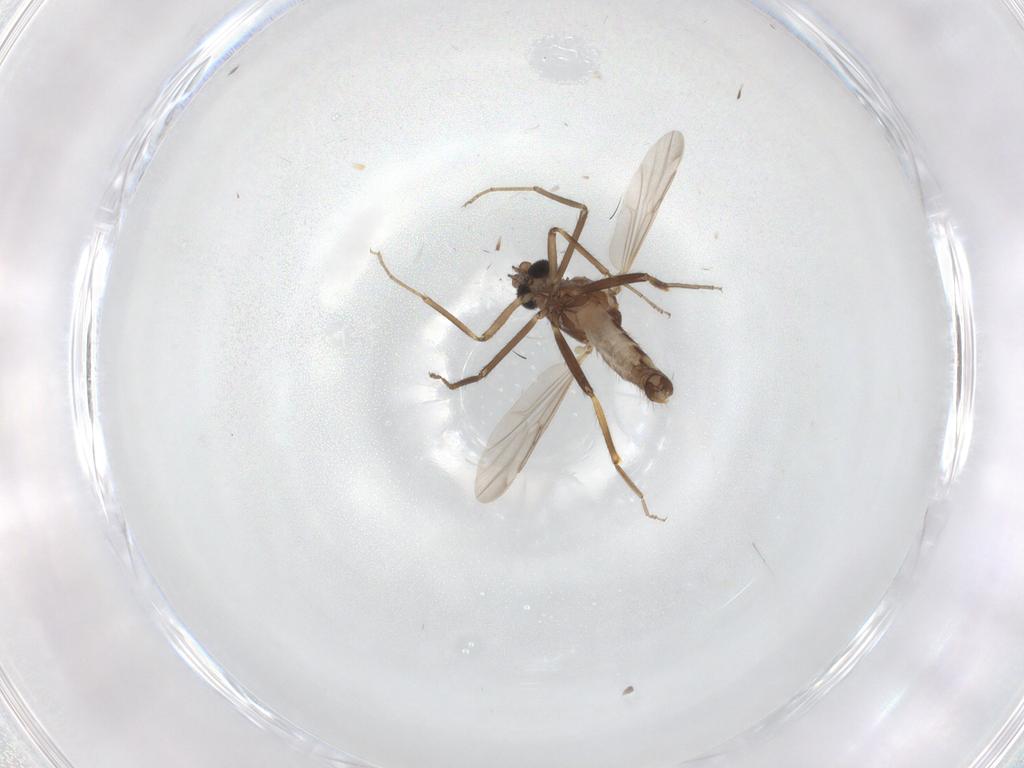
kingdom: Animalia
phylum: Arthropoda
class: Insecta
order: Diptera
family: Ceratopogonidae
